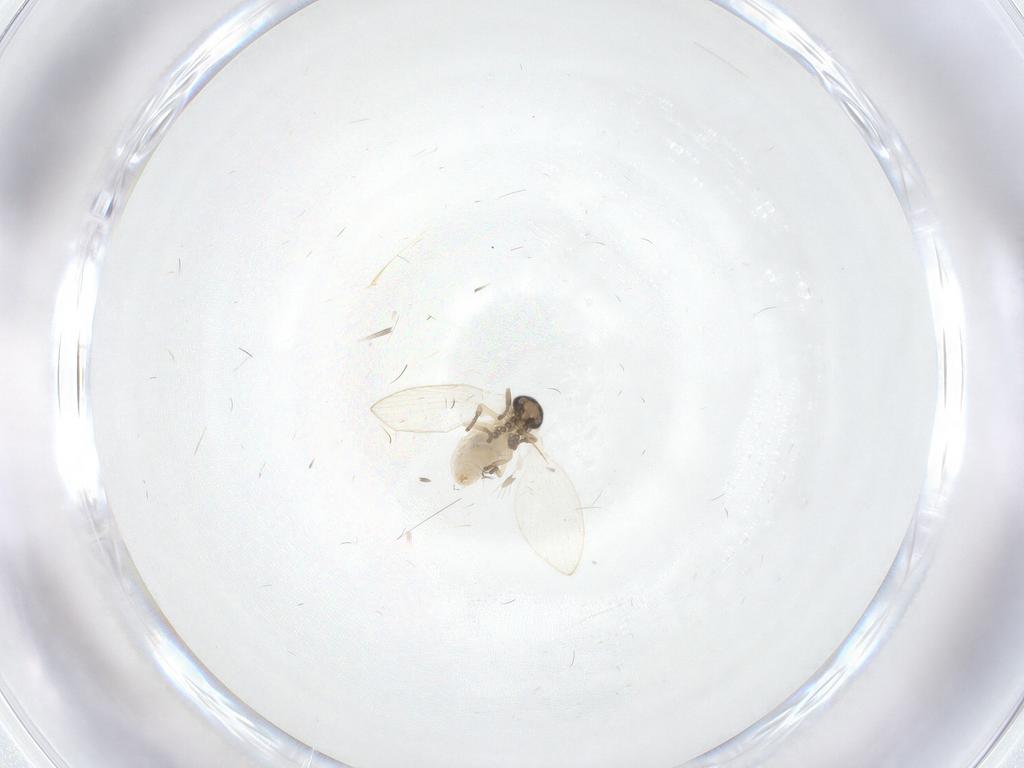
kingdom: Animalia
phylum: Arthropoda
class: Insecta
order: Diptera
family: Psychodidae
